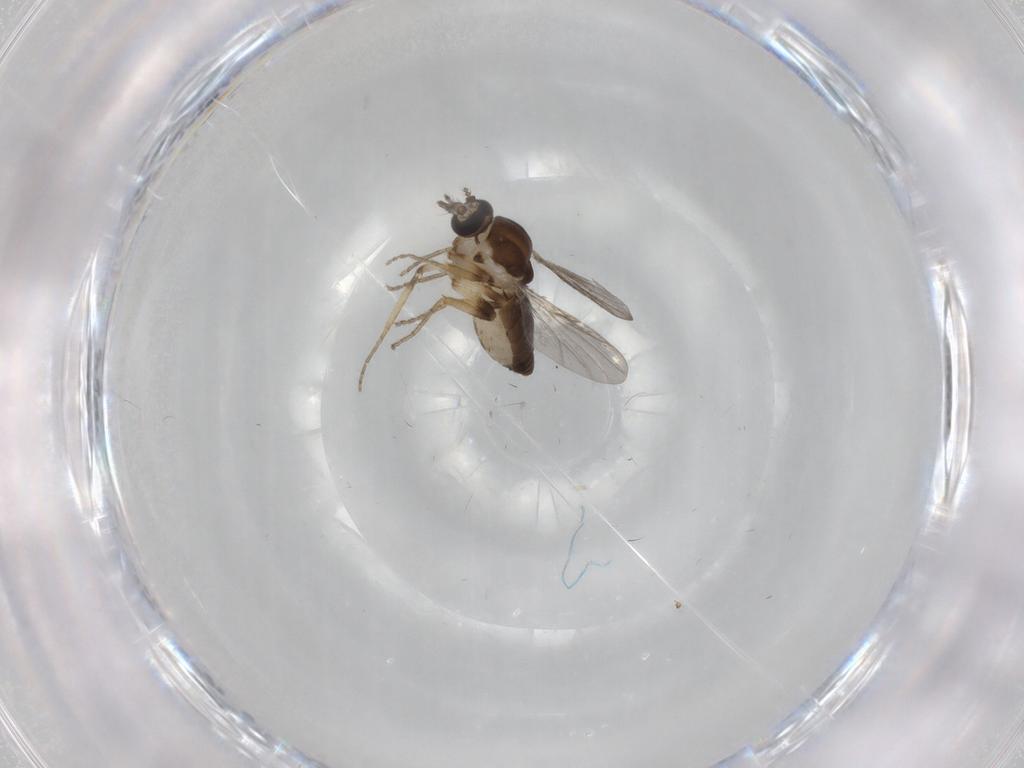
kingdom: Animalia
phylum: Arthropoda
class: Insecta
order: Diptera
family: Ceratopogonidae
